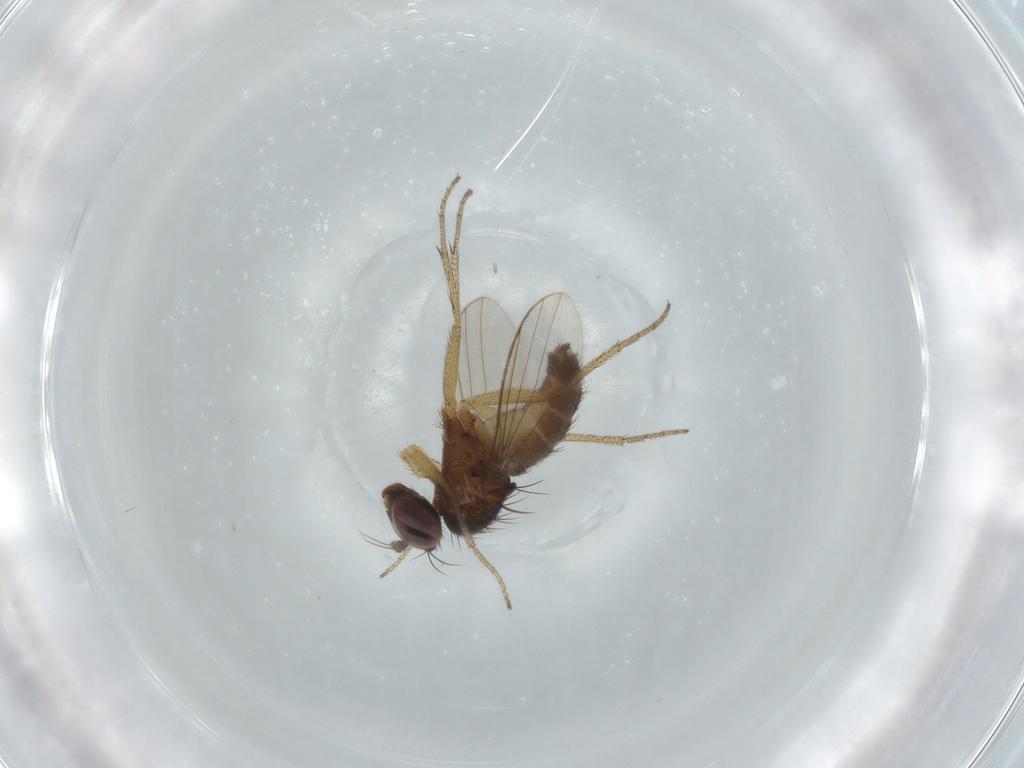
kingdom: Animalia
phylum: Arthropoda
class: Insecta
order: Diptera
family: Dolichopodidae
